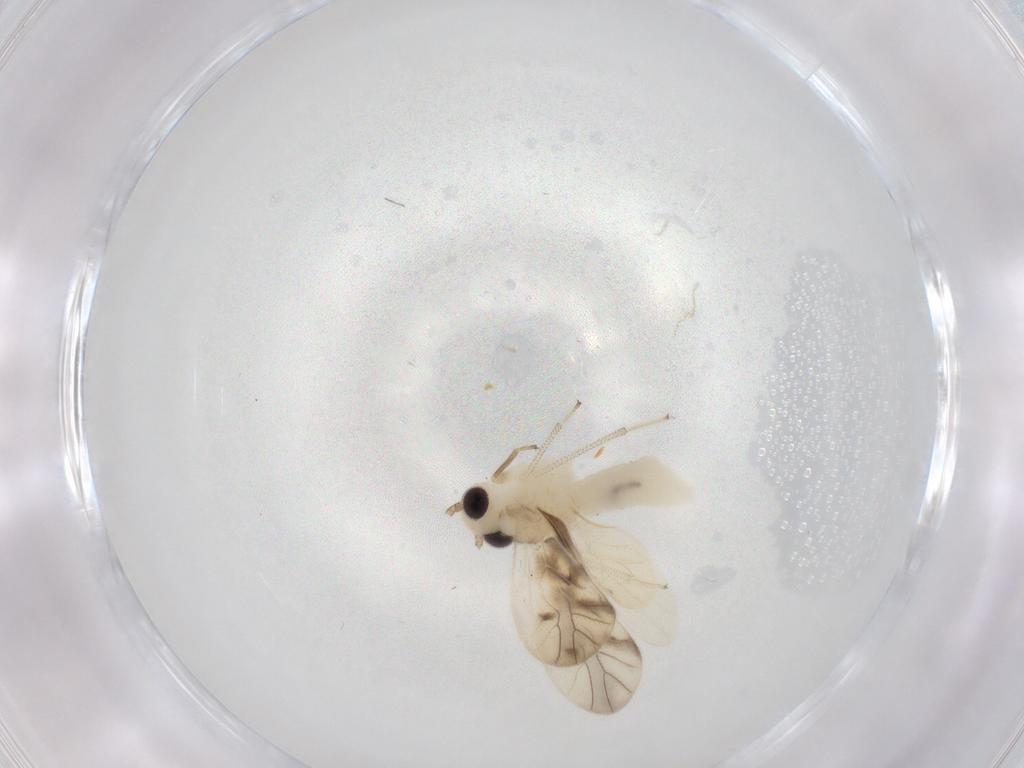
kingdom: Animalia
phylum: Arthropoda
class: Insecta
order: Psocodea
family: Caeciliusidae
